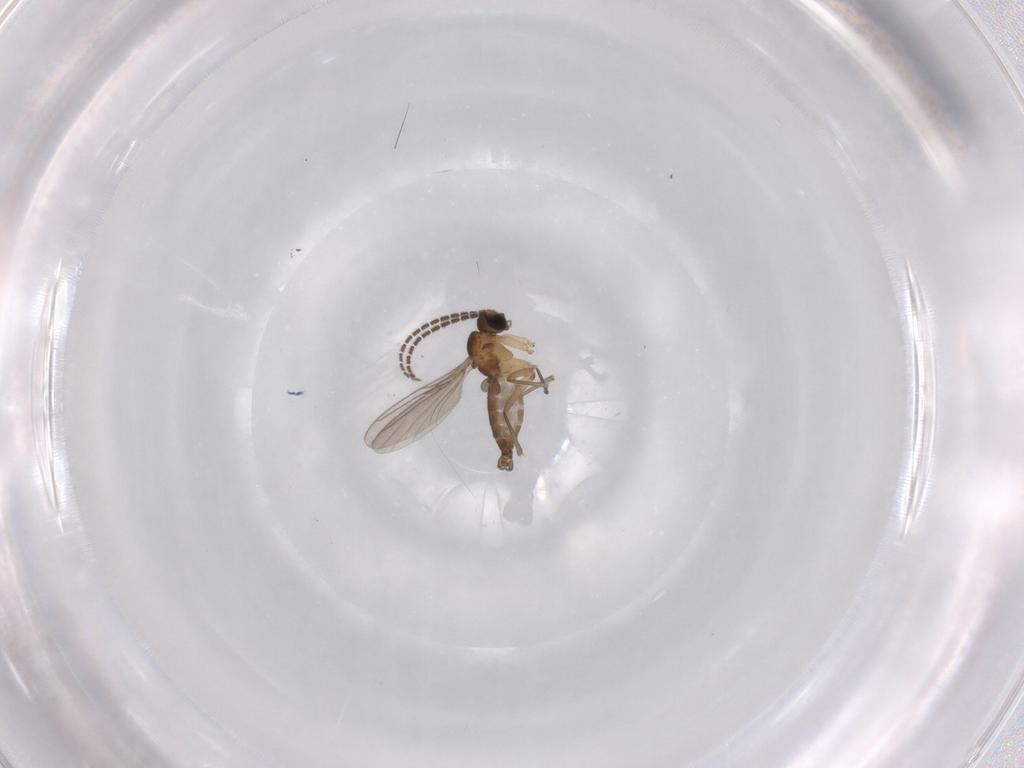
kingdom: Animalia
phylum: Arthropoda
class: Insecta
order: Diptera
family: Sciaridae
